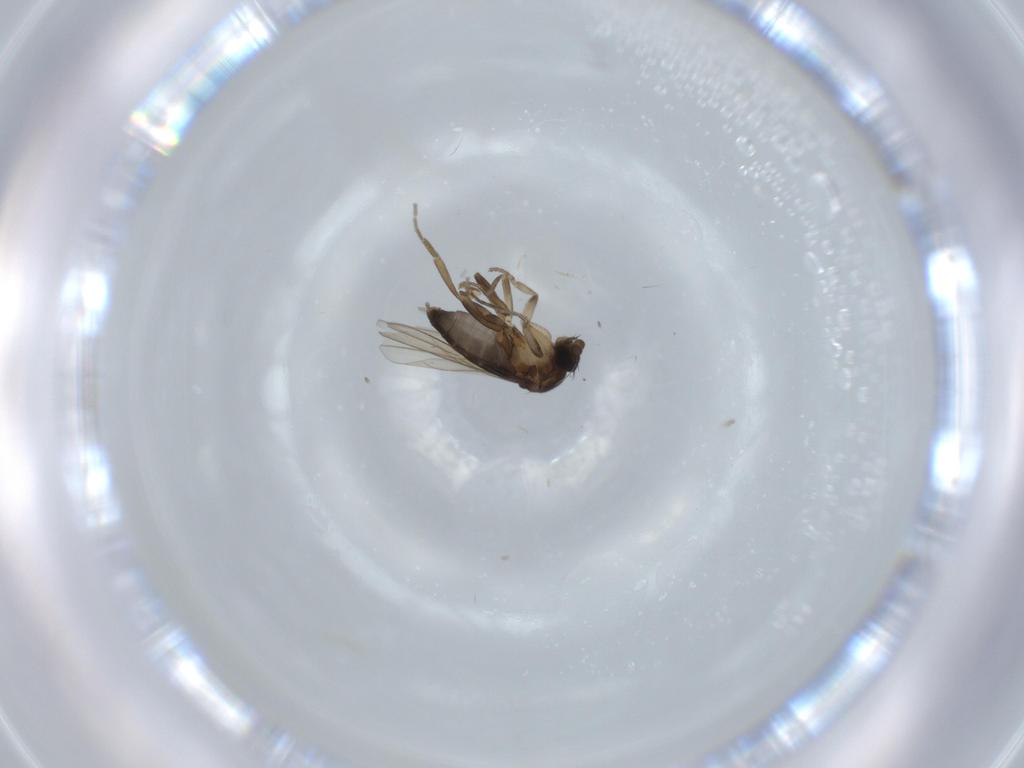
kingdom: Animalia
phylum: Arthropoda
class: Insecta
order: Diptera
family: Phoridae
